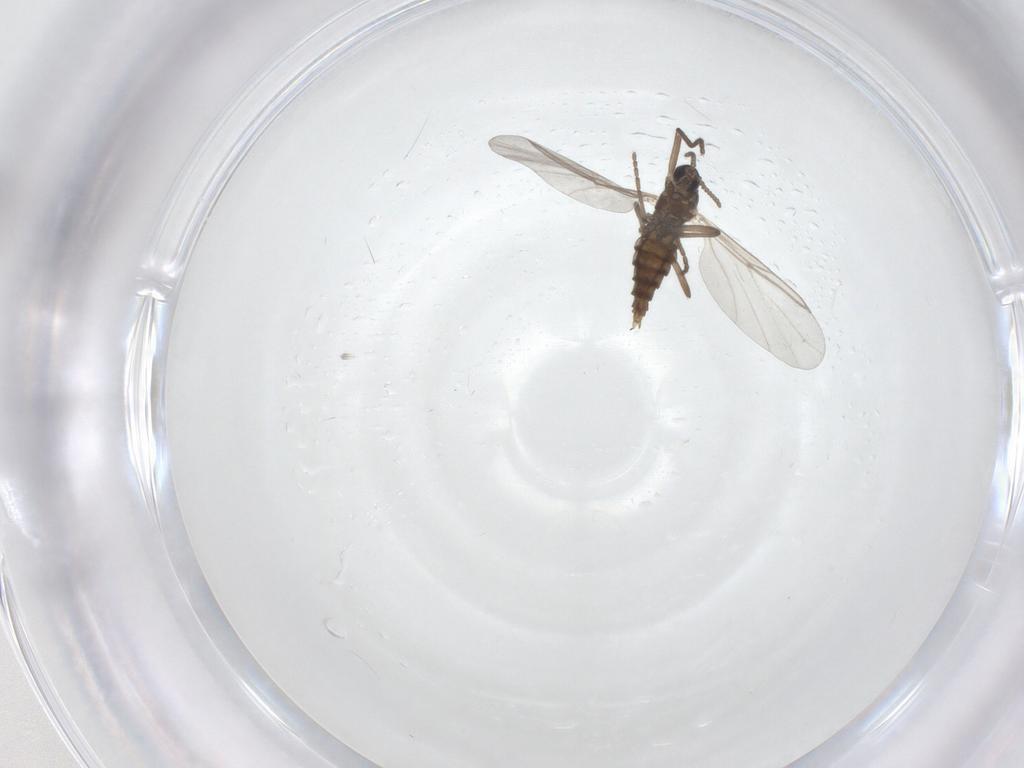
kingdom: Animalia
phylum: Arthropoda
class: Insecta
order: Diptera
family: Cecidomyiidae
